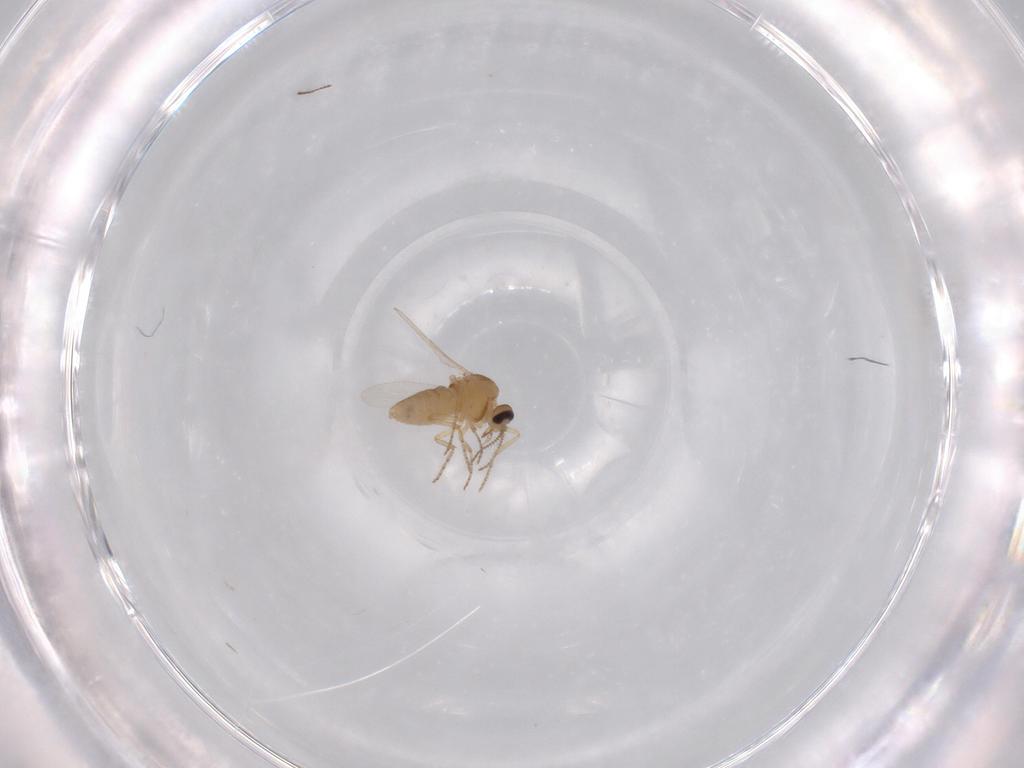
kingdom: Animalia
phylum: Arthropoda
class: Insecta
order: Diptera
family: Ceratopogonidae
